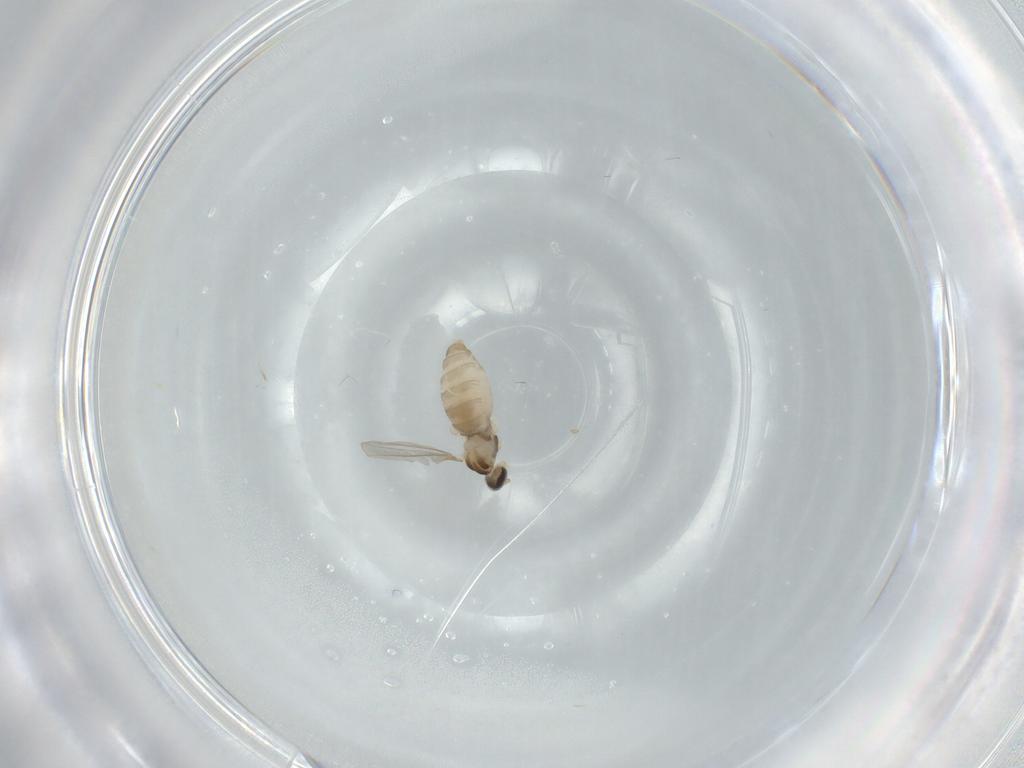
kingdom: Animalia
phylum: Arthropoda
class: Insecta
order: Diptera
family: Cecidomyiidae
